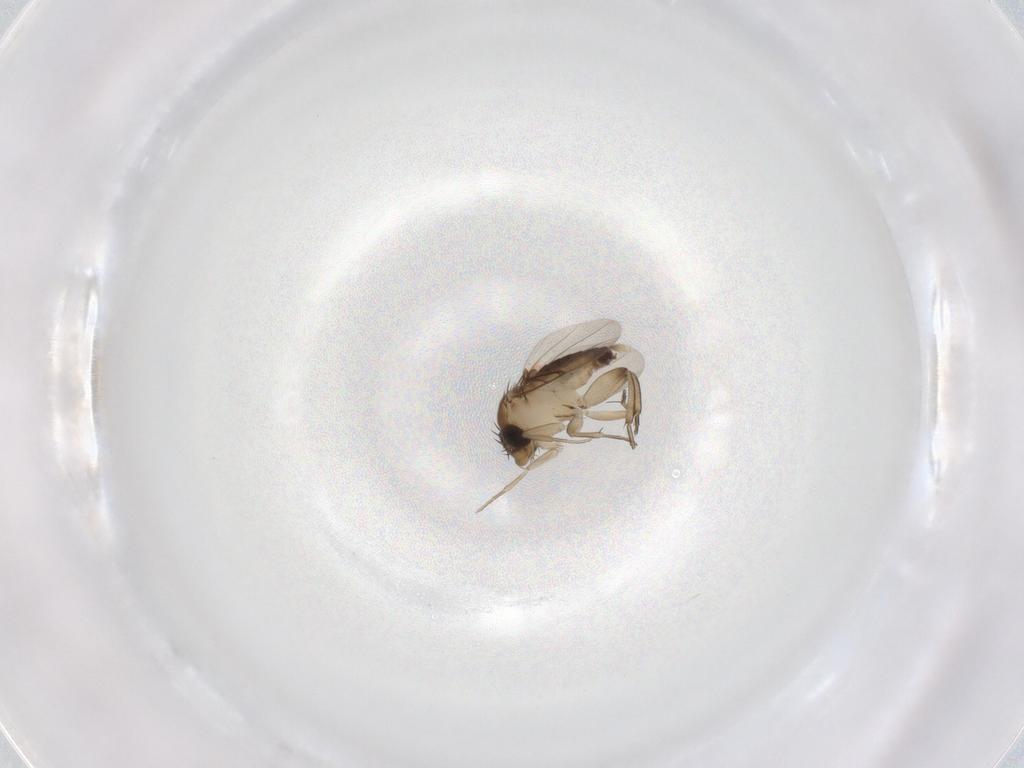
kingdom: Animalia
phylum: Arthropoda
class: Insecta
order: Diptera
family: Phoridae
